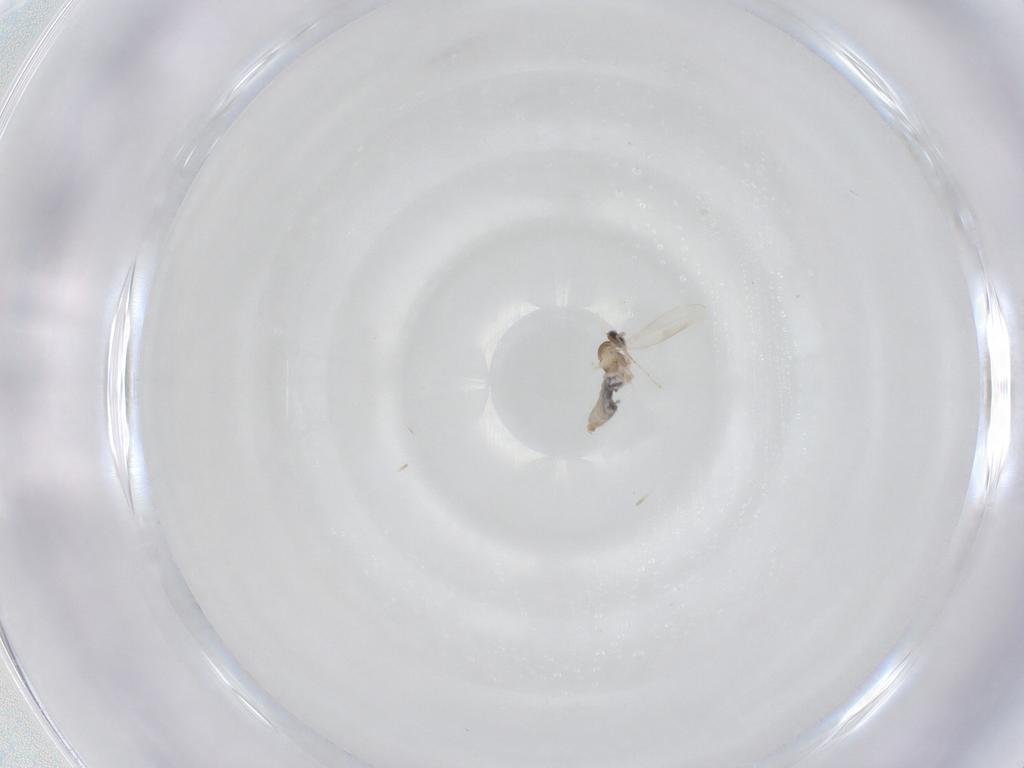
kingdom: Animalia
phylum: Arthropoda
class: Insecta
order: Diptera
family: Cecidomyiidae
